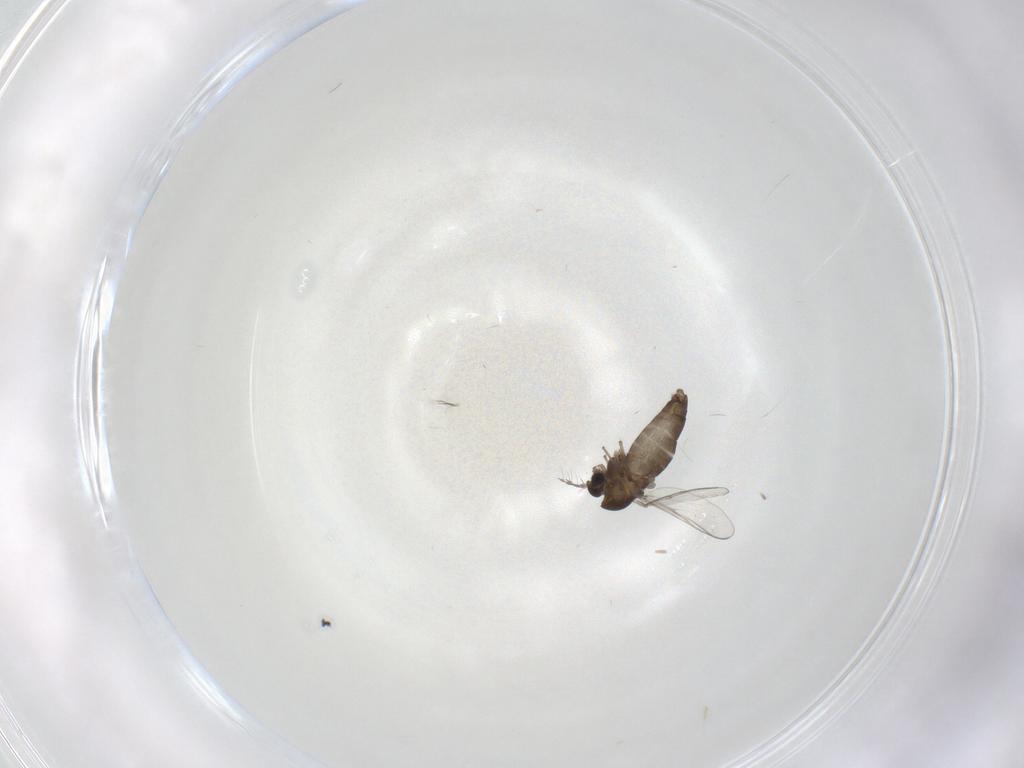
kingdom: Animalia
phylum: Arthropoda
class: Insecta
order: Diptera
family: Chironomidae
